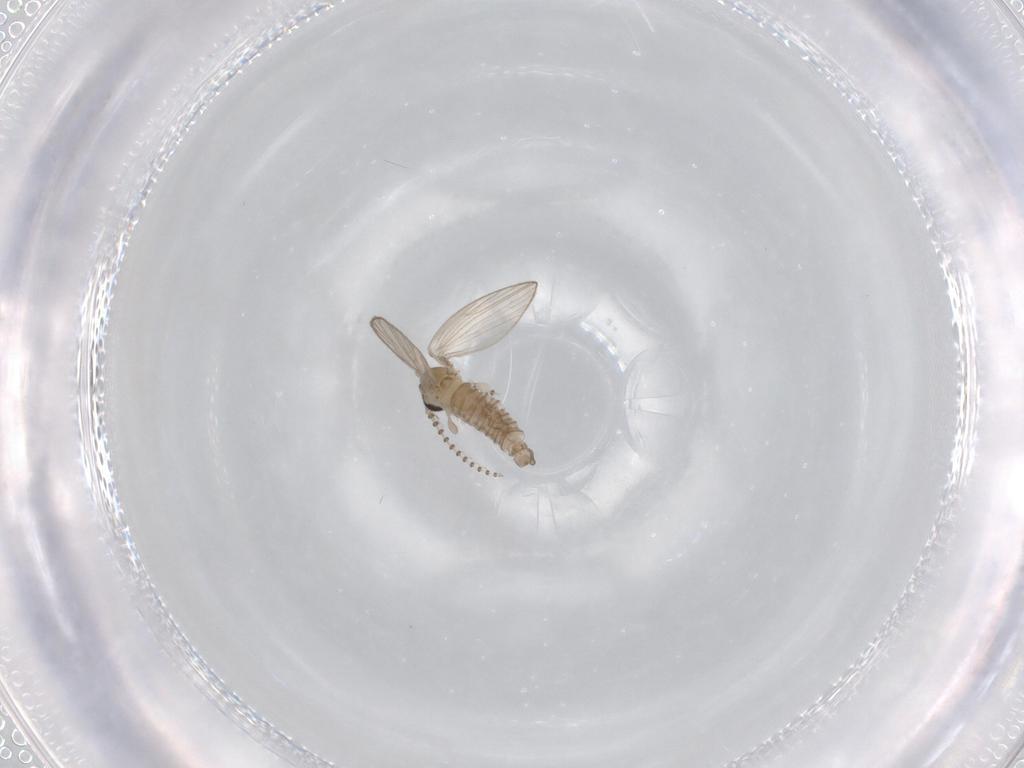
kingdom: Animalia
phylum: Arthropoda
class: Insecta
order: Diptera
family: Psychodidae
